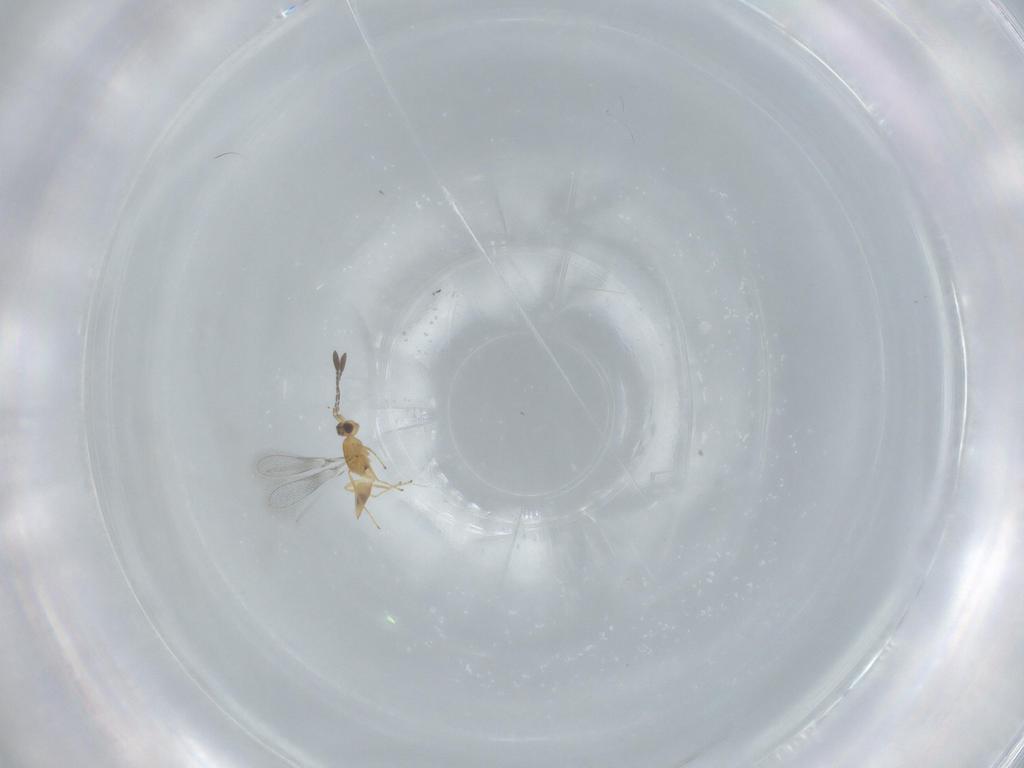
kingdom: Animalia
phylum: Arthropoda
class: Insecta
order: Hymenoptera
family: Mymaridae
